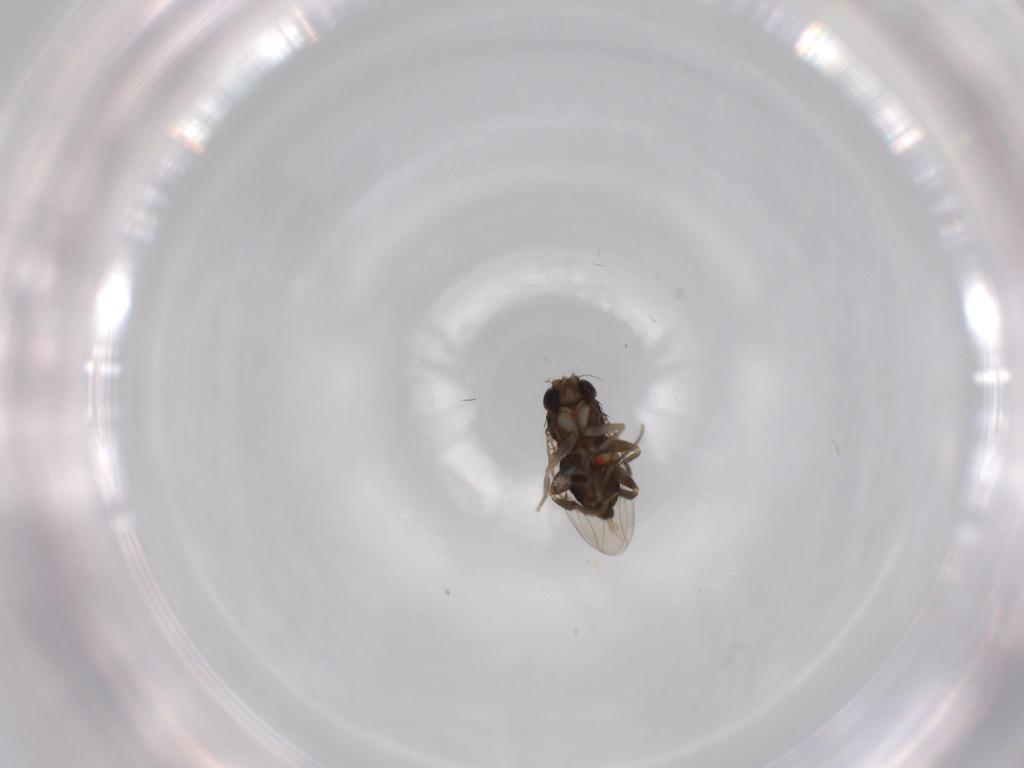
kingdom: Animalia
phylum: Arthropoda
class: Insecta
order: Diptera
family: Phoridae
